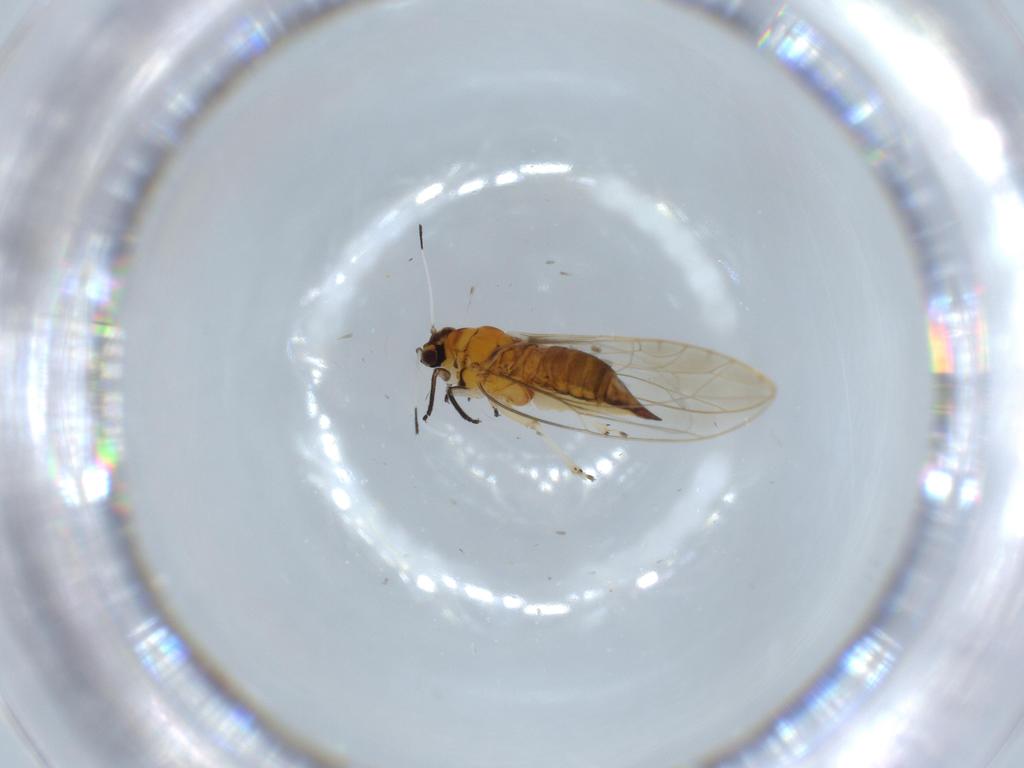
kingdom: Animalia
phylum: Arthropoda
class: Insecta
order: Hemiptera
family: Triozidae
